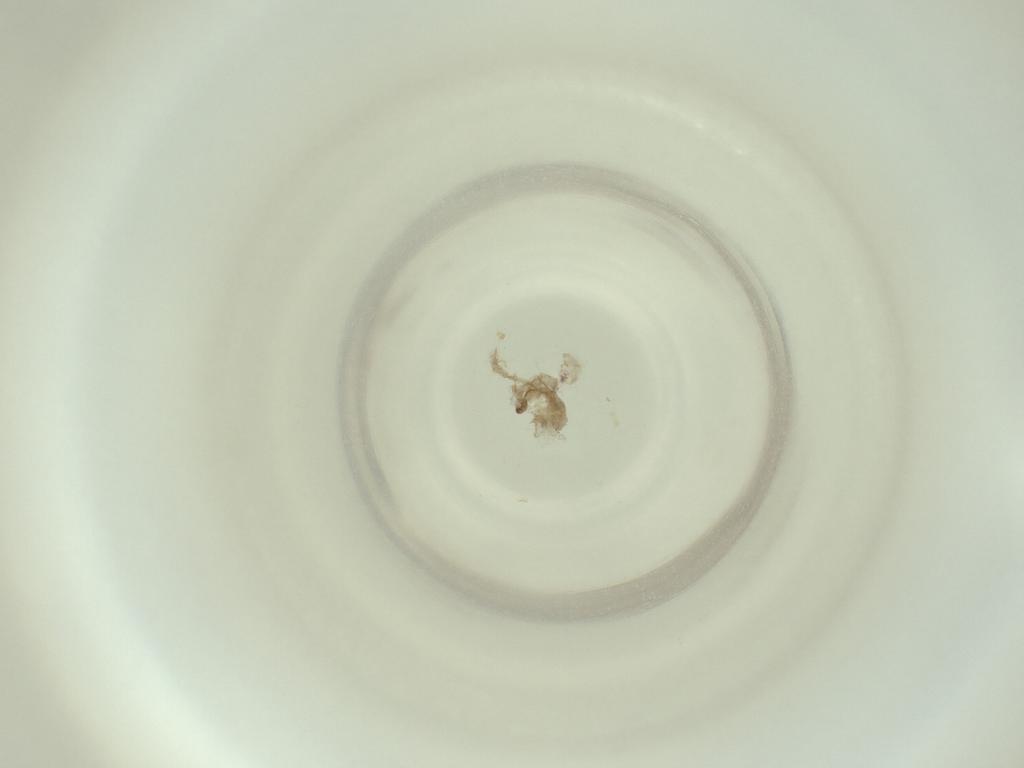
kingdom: Animalia
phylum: Arthropoda
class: Insecta
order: Diptera
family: Cecidomyiidae
